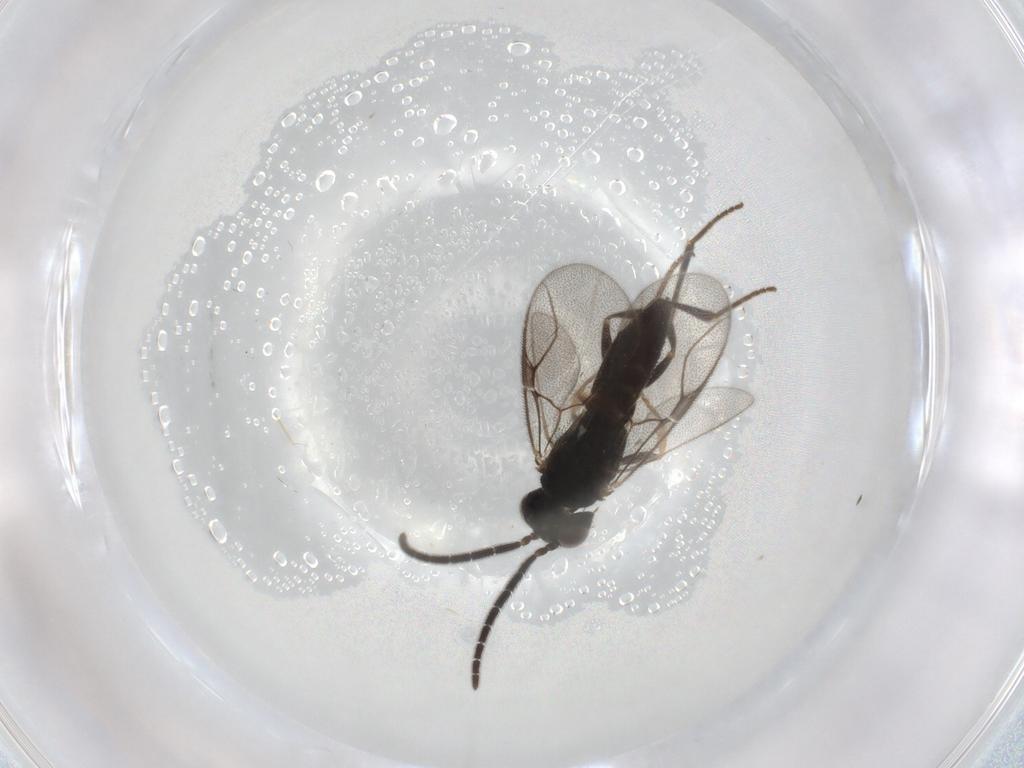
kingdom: Animalia
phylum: Arthropoda
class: Insecta
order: Hymenoptera
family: Dryinidae
